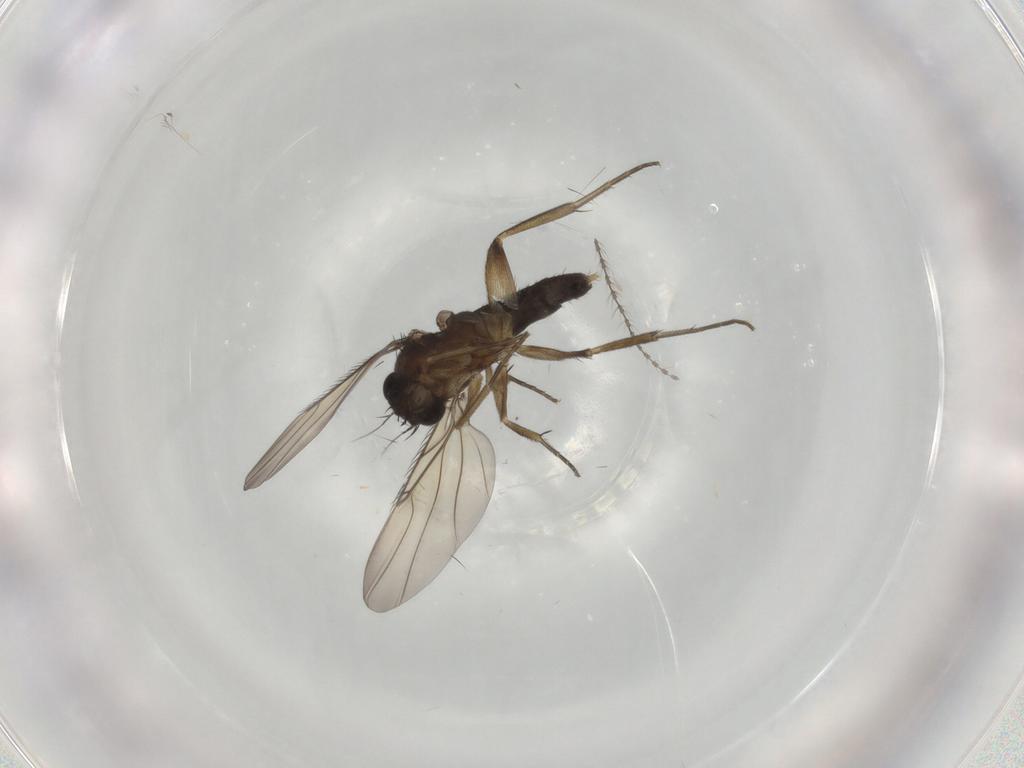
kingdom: Animalia
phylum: Arthropoda
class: Insecta
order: Diptera
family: Phoridae
